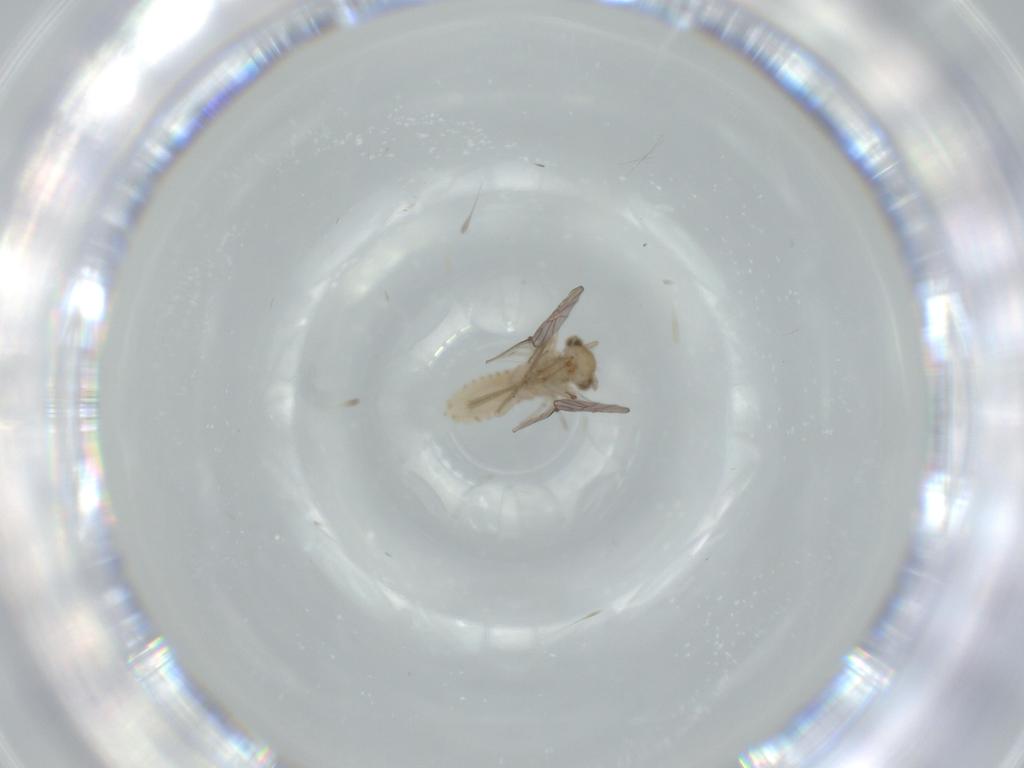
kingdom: Animalia
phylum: Arthropoda
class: Insecta
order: Psocodea
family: Lachesillidae
